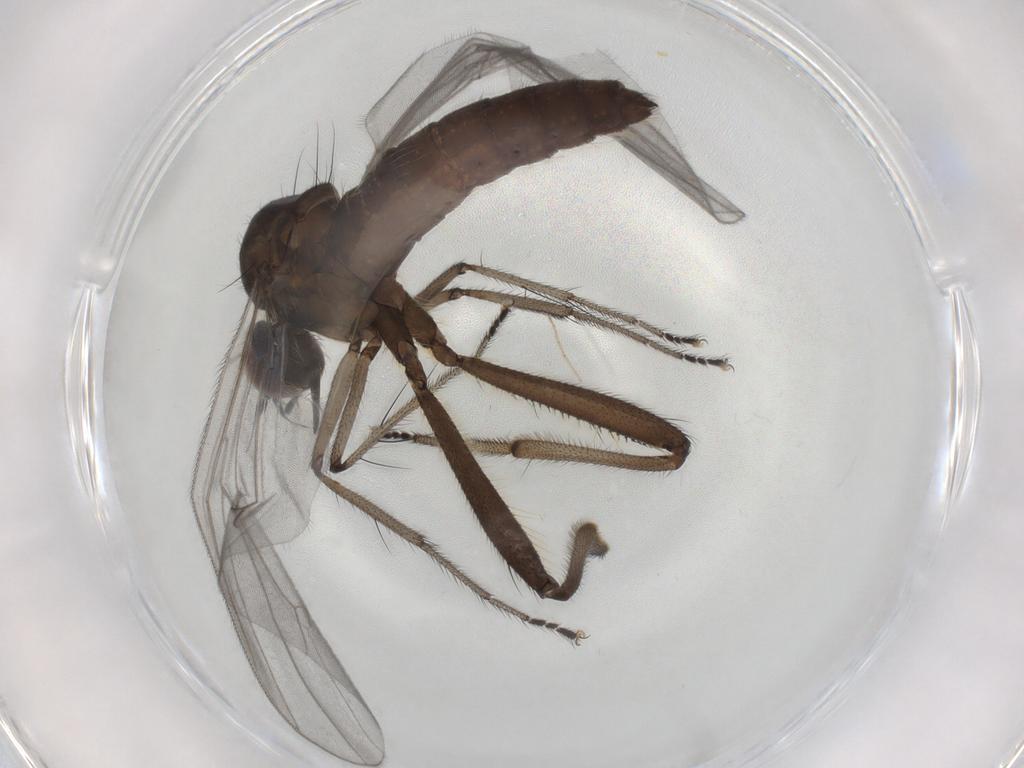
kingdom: Animalia
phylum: Arthropoda
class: Insecta
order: Diptera
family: Hybotidae
